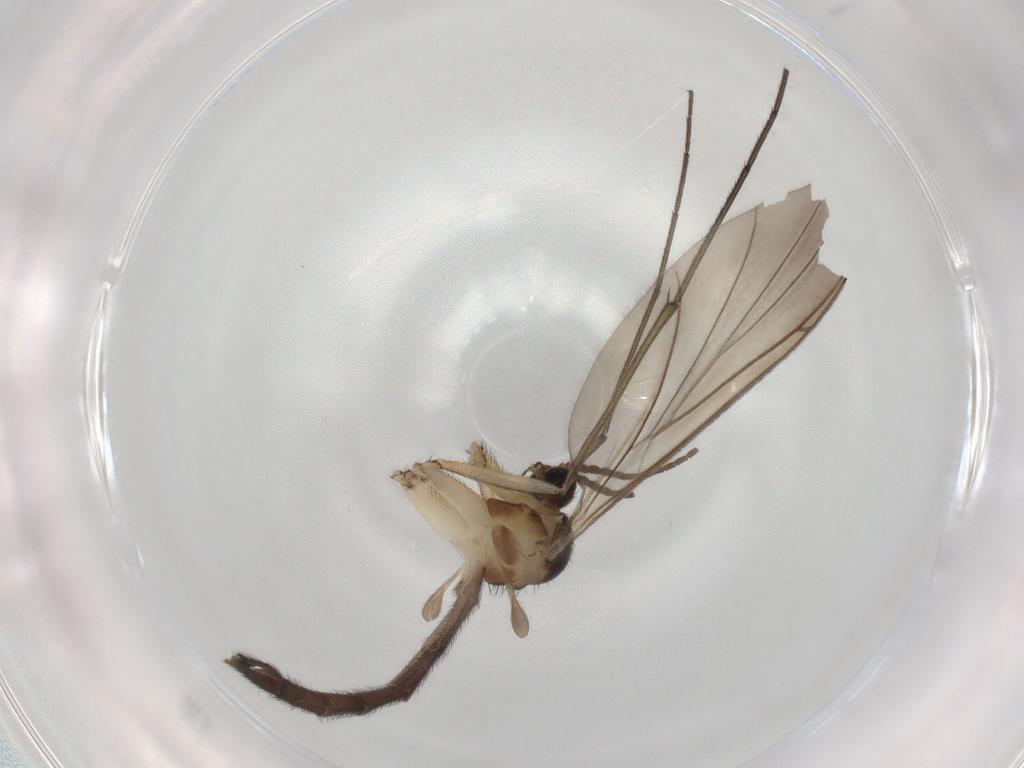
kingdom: Animalia
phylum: Arthropoda
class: Insecta
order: Diptera
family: Keroplatidae
